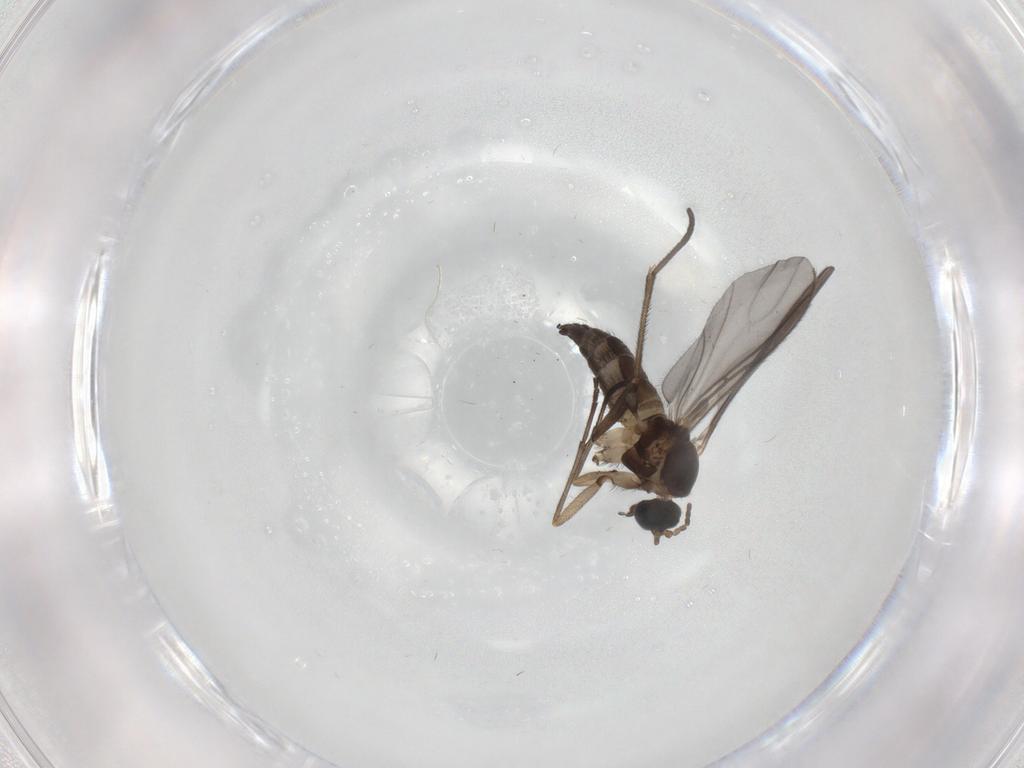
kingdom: Animalia
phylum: Arthropoda
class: Insecta
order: Diptera
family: Sciaridae
